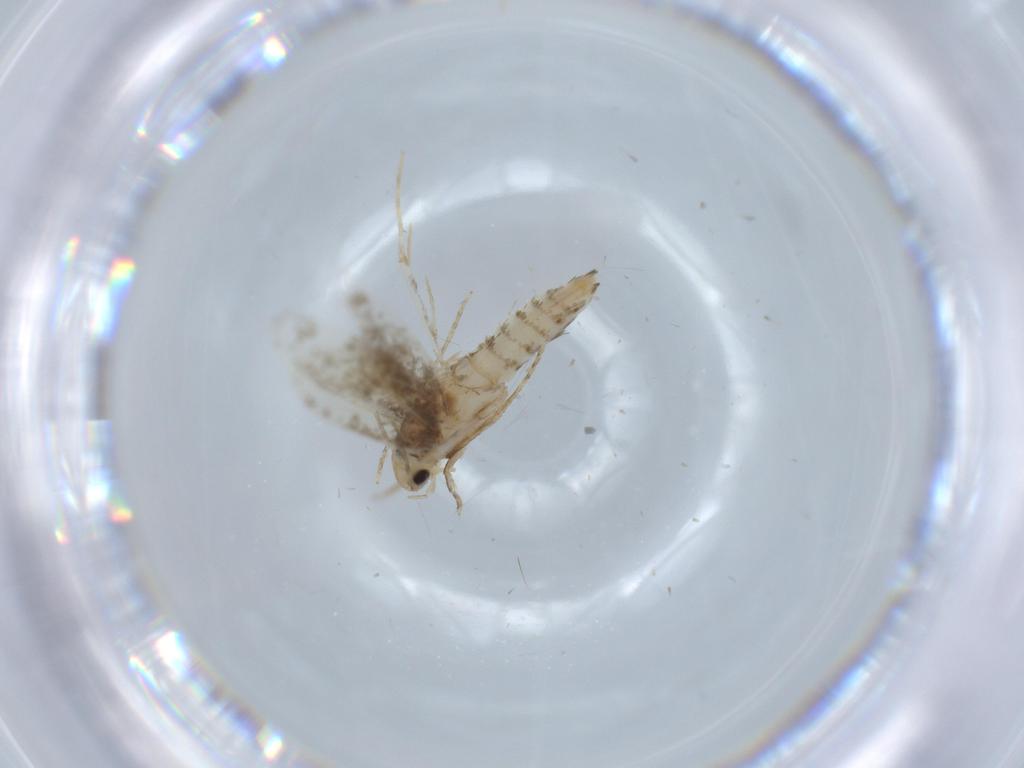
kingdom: Animalia
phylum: Arthropoda
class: Insecta
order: Lepidoptera
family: Tineidae
